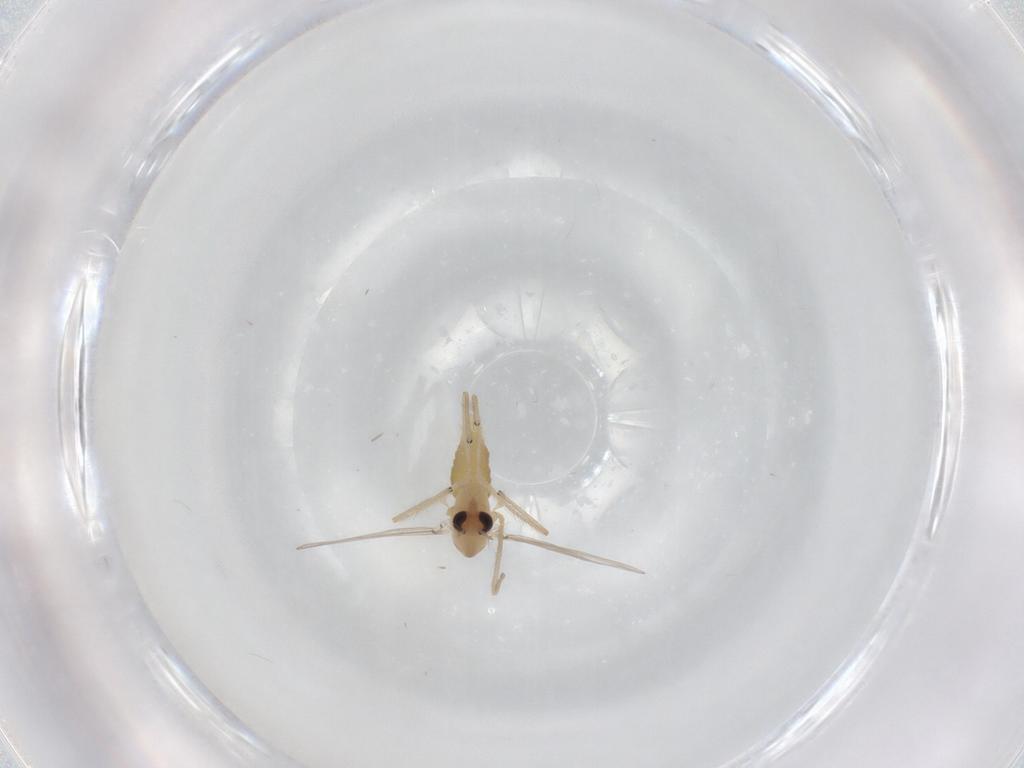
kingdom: Animalia
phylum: Arthropoda
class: Insecta
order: Diptera
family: Chironomidae
